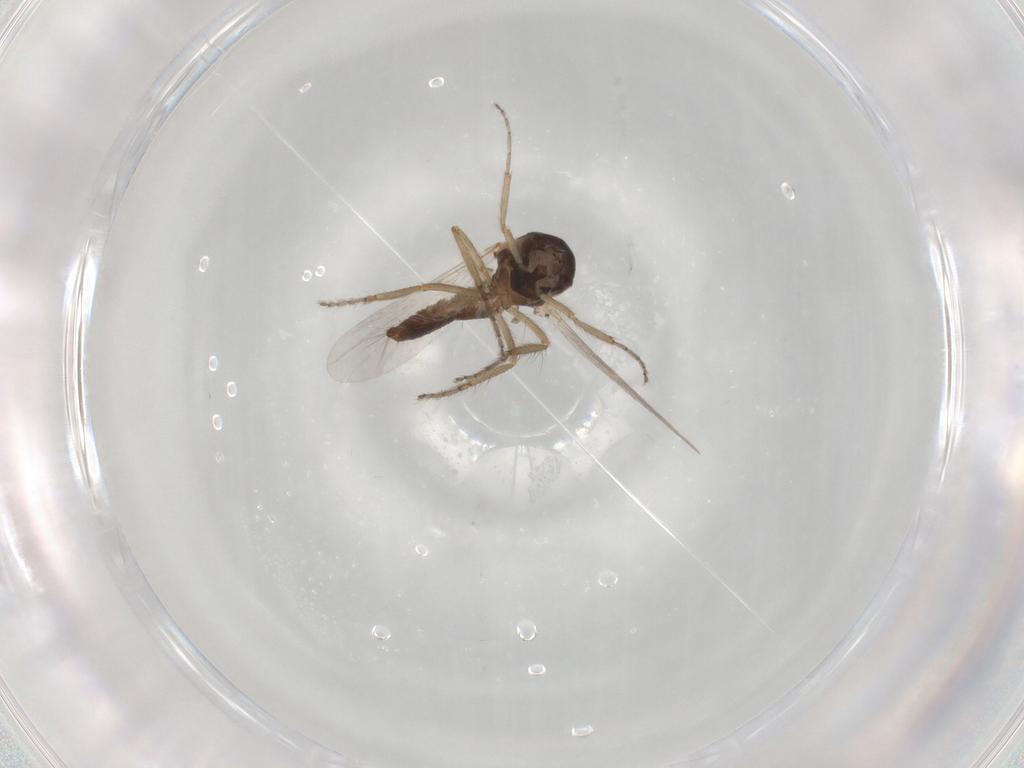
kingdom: Animalia
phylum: Arthropoda
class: Insecta
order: Diptera
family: Ceratopogonidae
